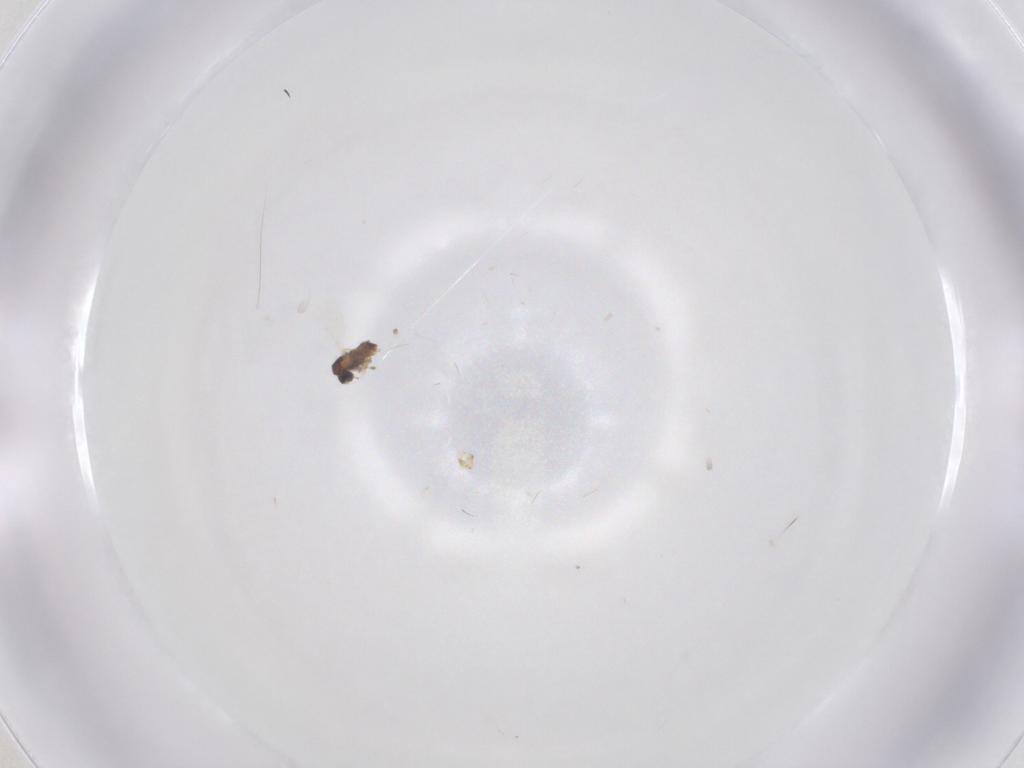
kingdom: Animalia
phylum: Arthropoda
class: Insecta
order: Diptera
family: Cecidomyiidae
